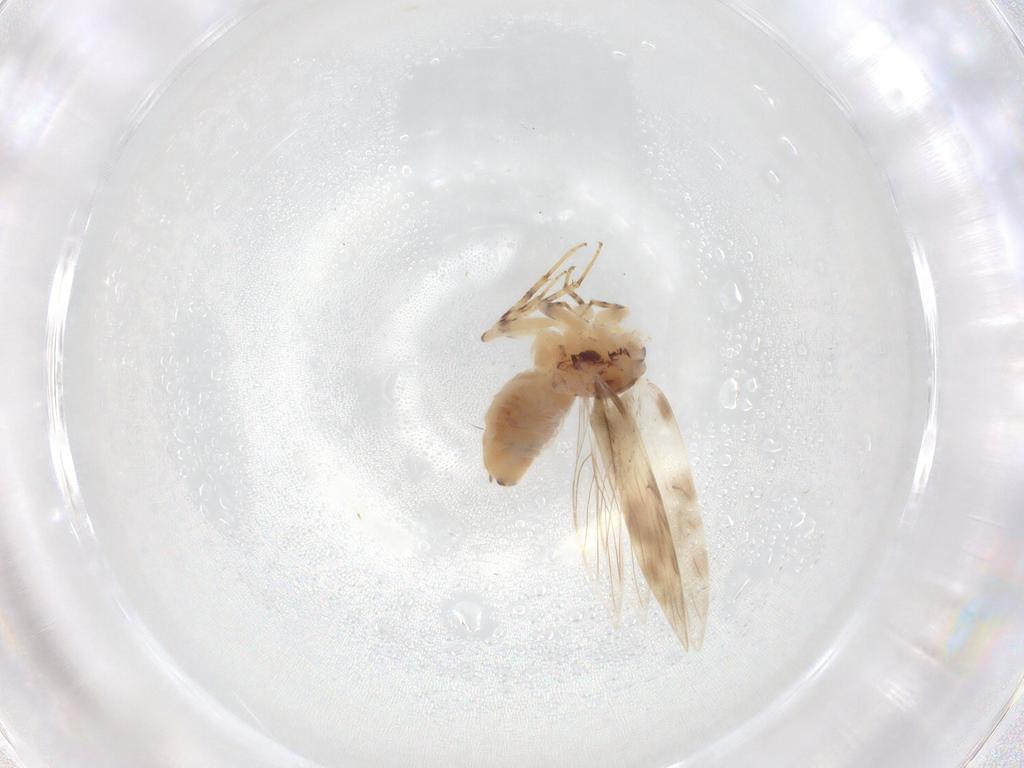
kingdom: Animalia
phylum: Arthropoda
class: Insecta
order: Psocodea
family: Lepidopsocidae
